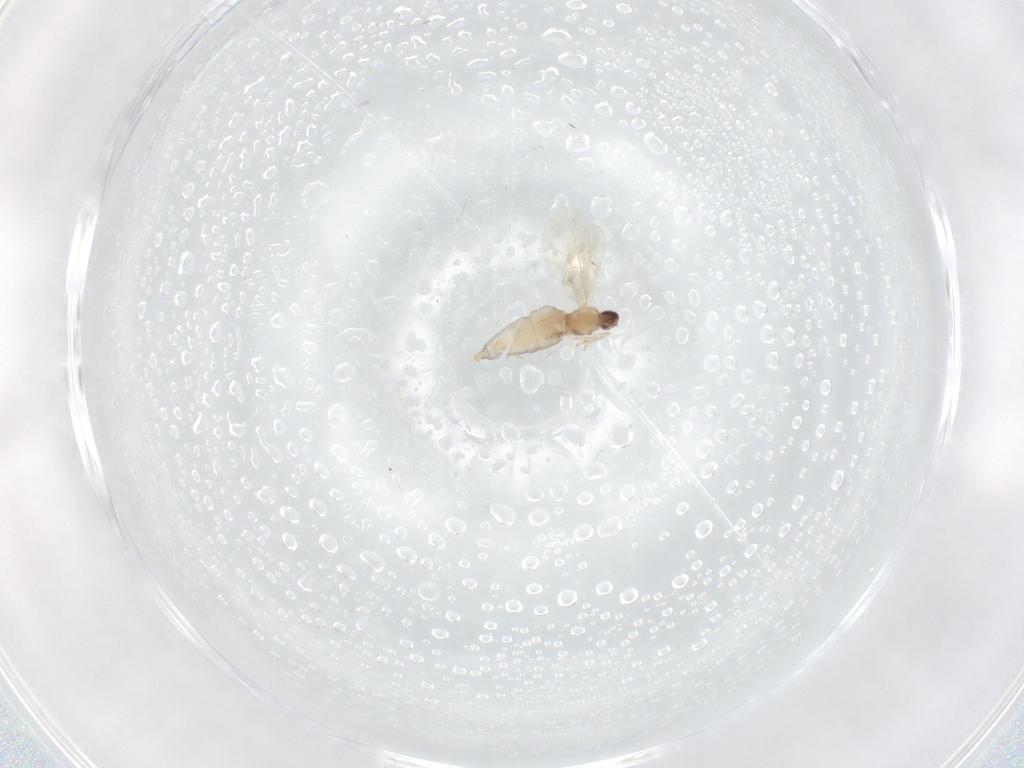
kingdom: Animalia
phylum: Arthropoda
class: Insecta
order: Diptera
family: Cecidomyiidae
